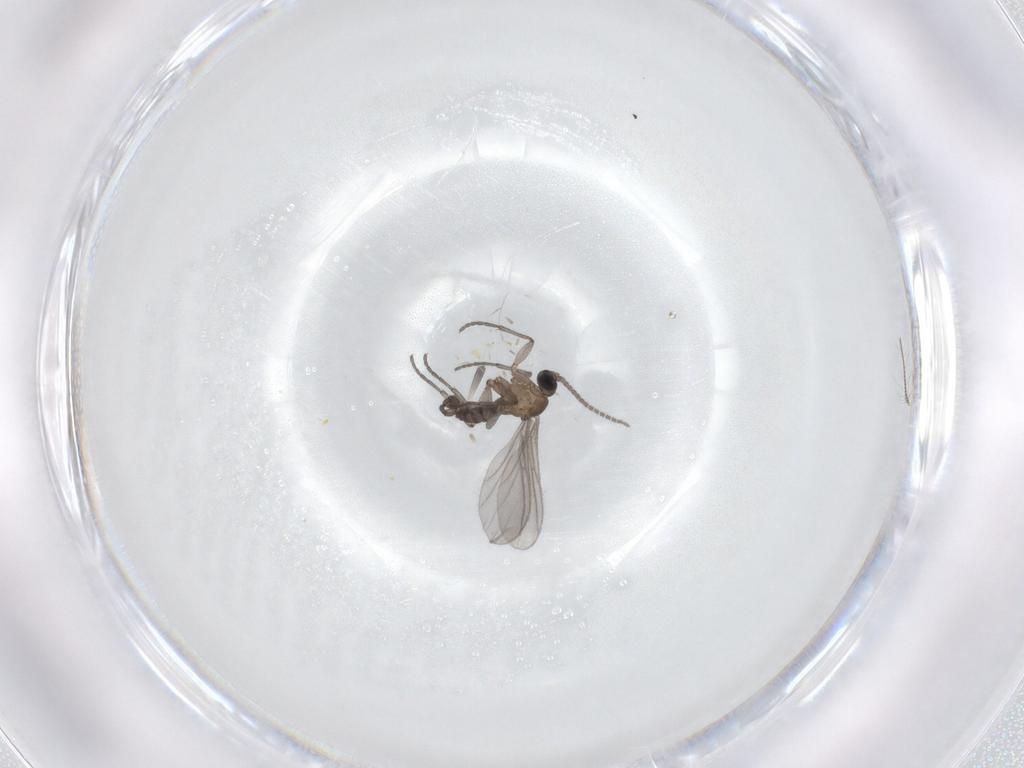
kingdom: Animalia
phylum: Arthropoda
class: Insecta
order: Diptera
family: Sciaridae
